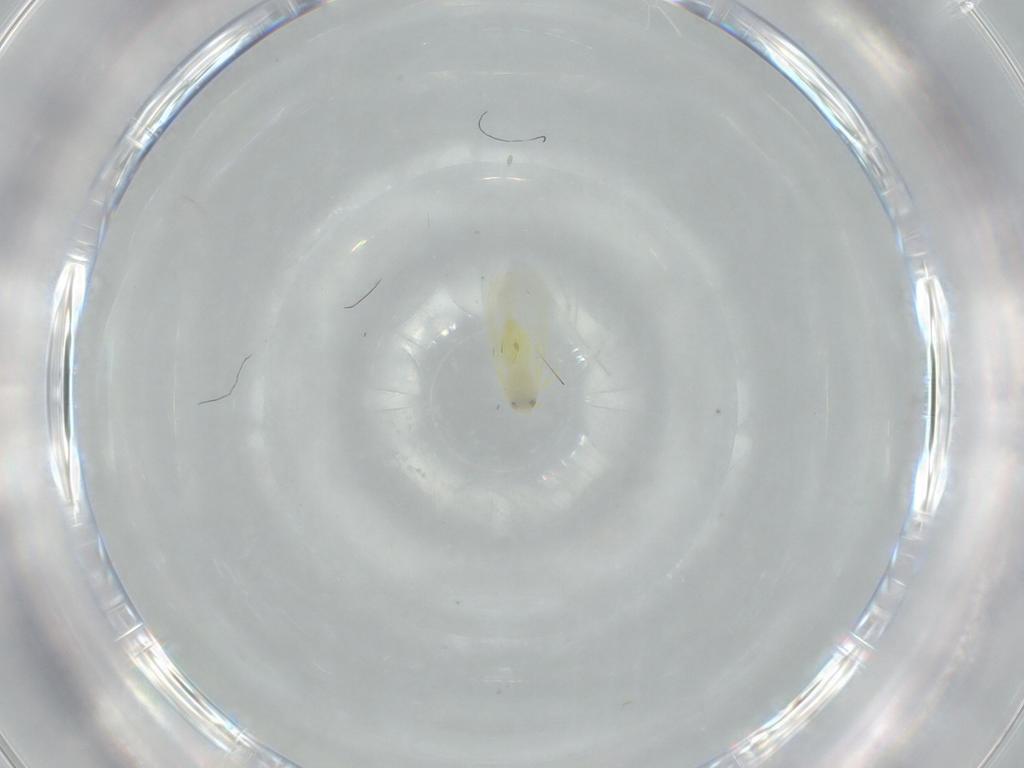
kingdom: Animalia
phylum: Arthropoda
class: Insecta
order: Hemiptera
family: Aleyrodidae
